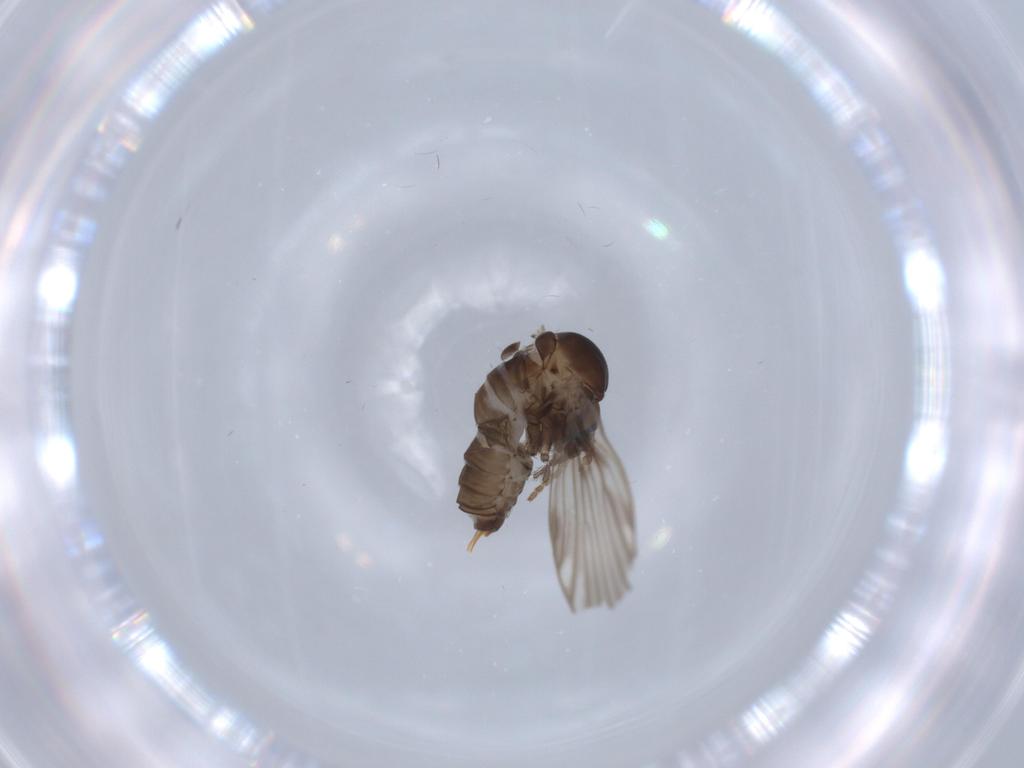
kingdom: Animalia
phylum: Arthropoda
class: Insecta
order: Diptera
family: Psychodidae
